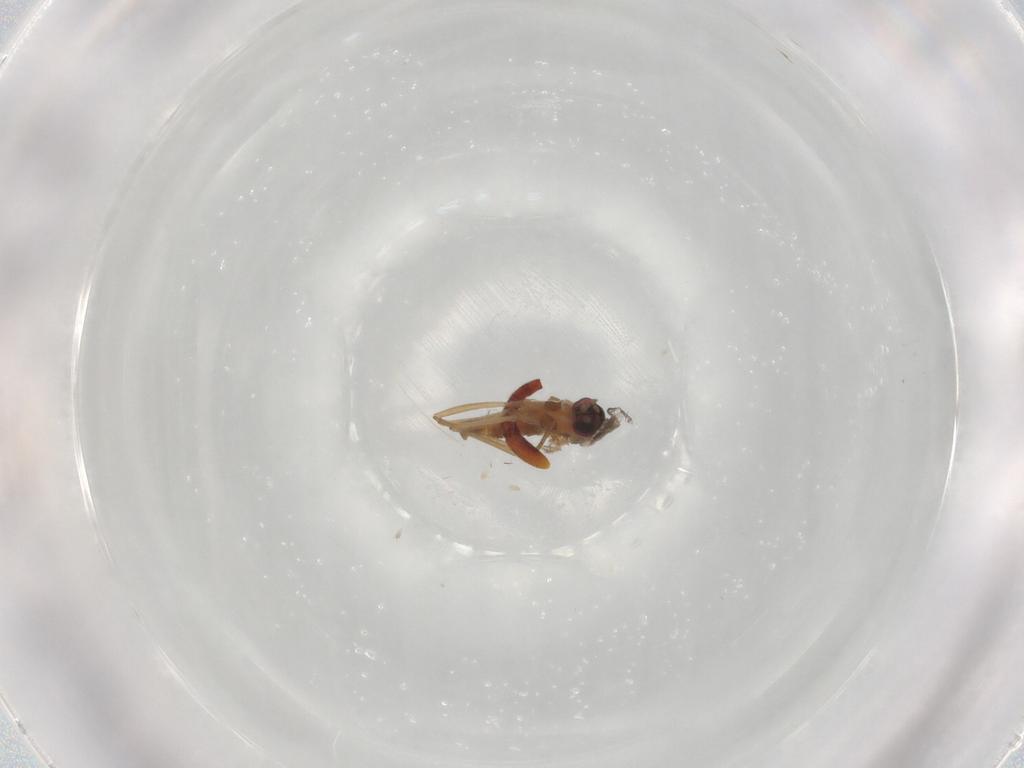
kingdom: Animalia
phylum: Arthropoda
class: Insecta
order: Diptera
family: Cecidomyiidae
